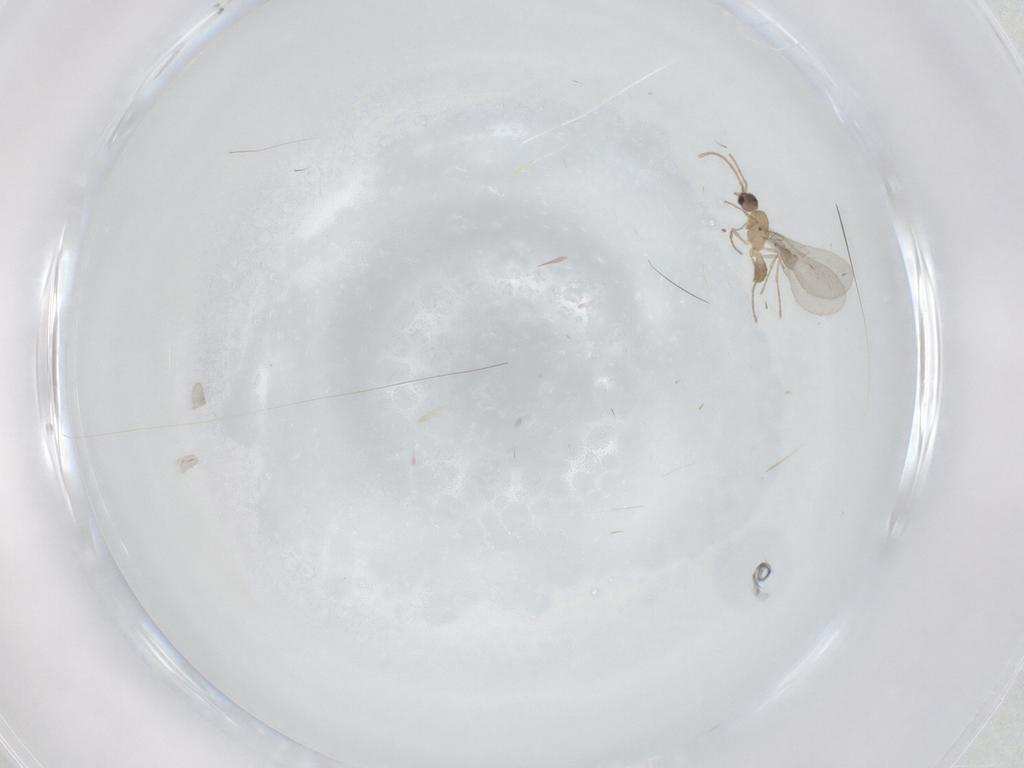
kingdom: Animalia
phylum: Arthropoda
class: Insecta
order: Hymenoptera
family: Formicidae
